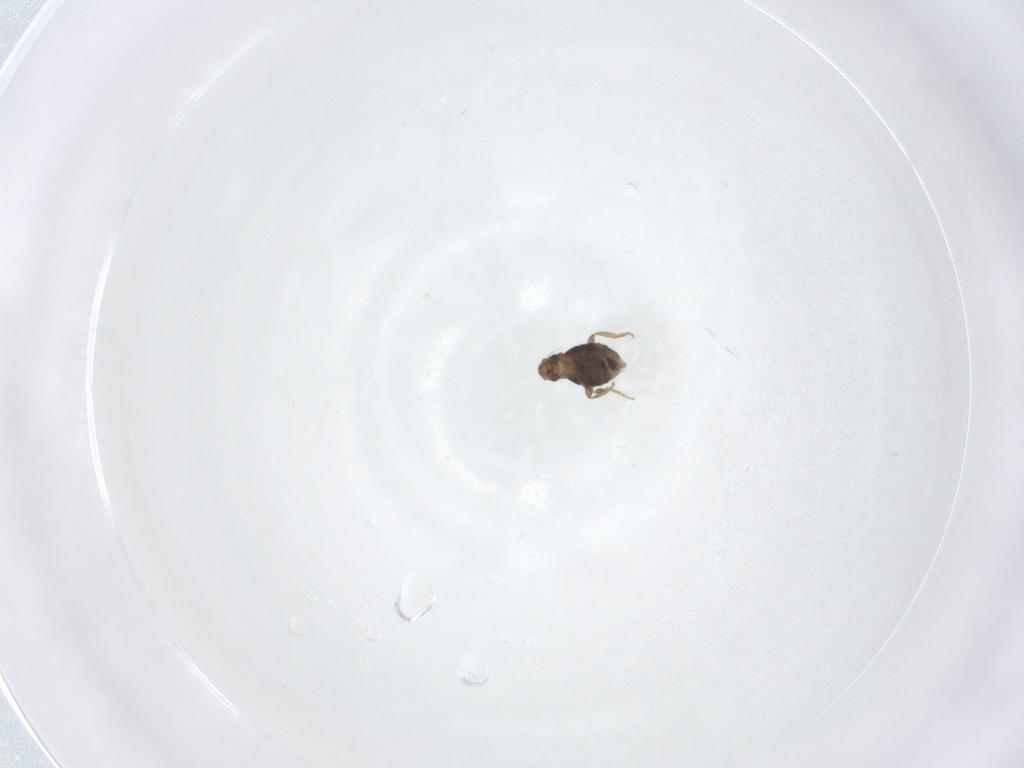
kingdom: Animalia
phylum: Arthropoda
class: Insecta
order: Diptera
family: Phoridae
